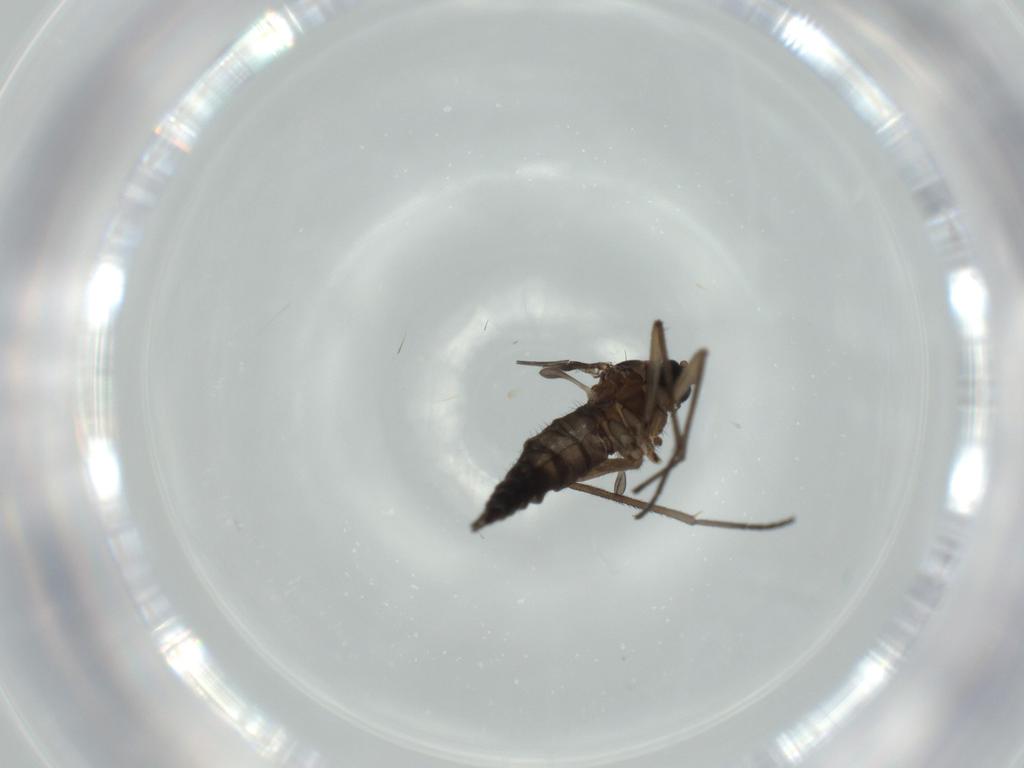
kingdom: Animalia
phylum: Arthropoda
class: Insecta
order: Diptera
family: Sciaridae
